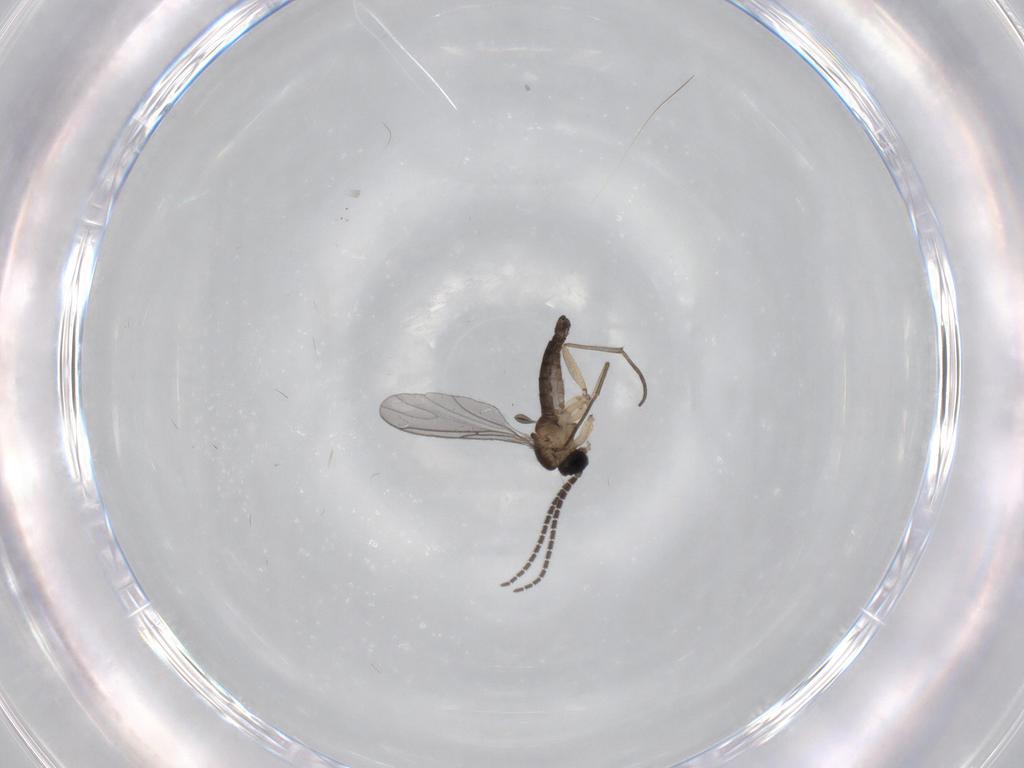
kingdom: Animalia
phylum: Arthropoda
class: Insecta
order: Diptera
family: Sciaridae
